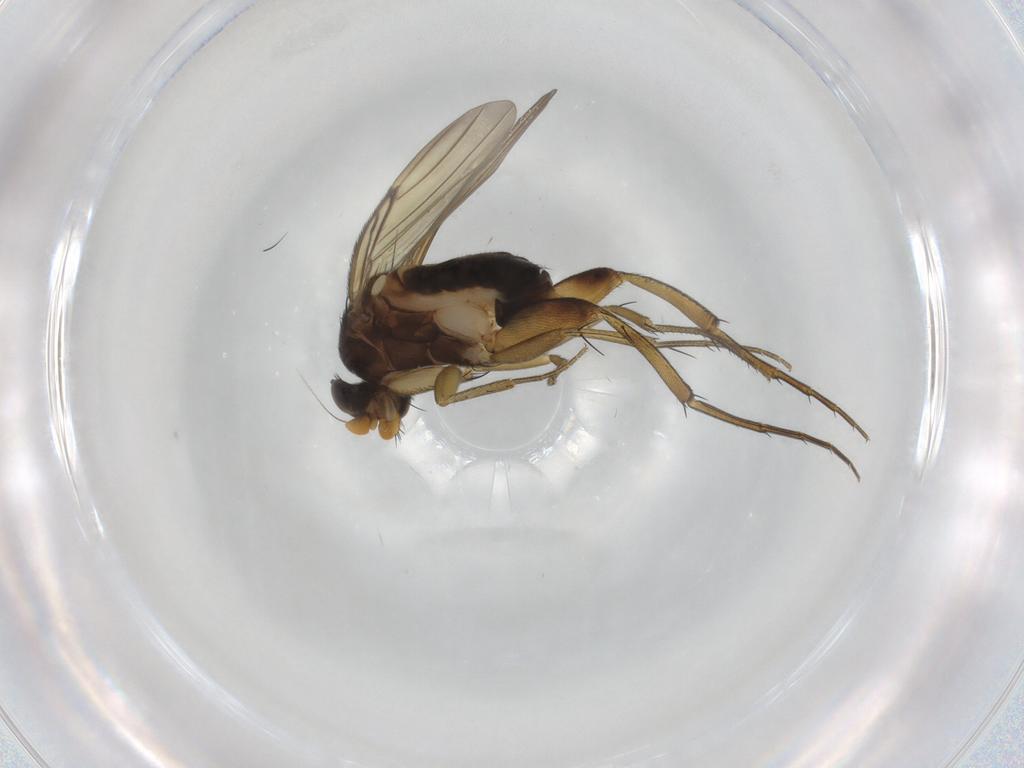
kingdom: Animalia
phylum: Arthropoda
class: Insecta
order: Diptera
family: Phoridae
